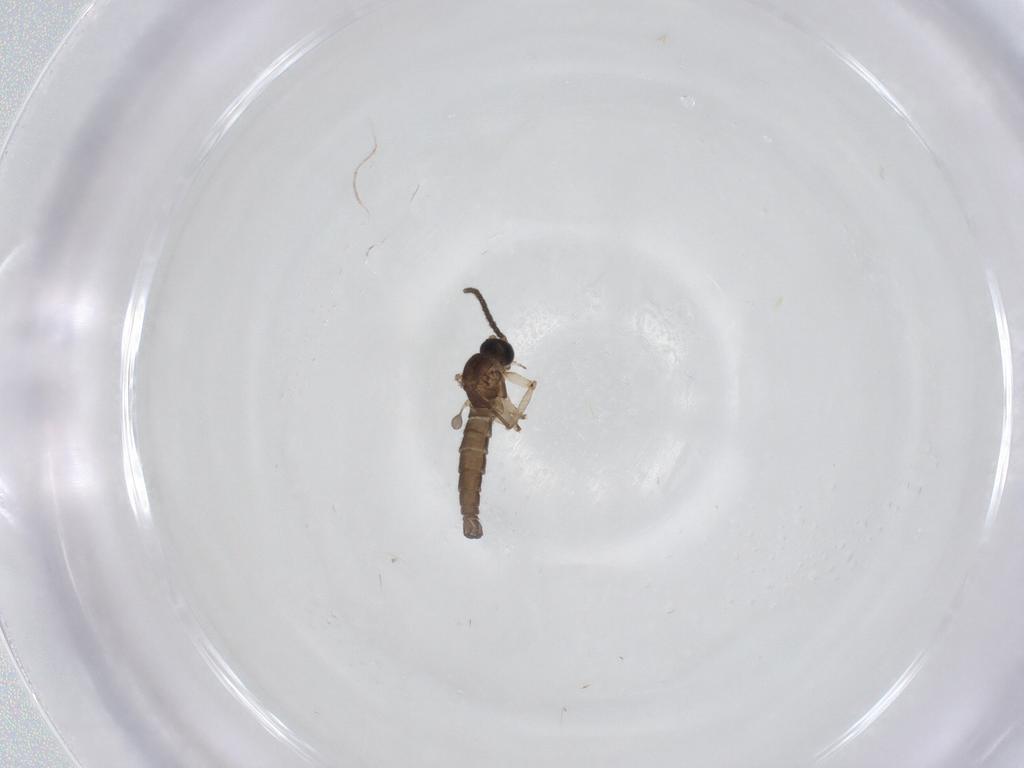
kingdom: Animalia
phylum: Arthropoda
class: Insecta
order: Diptera
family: Sciaridae
